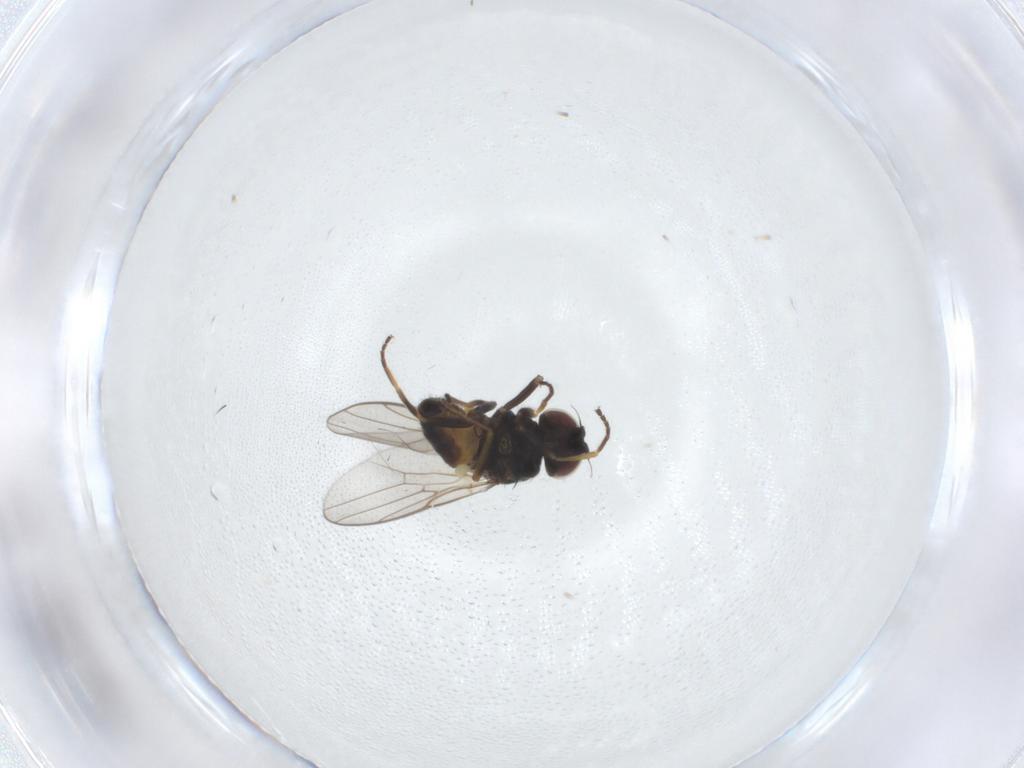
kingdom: Animalia
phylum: Arthropoda
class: Insecta
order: Diptera
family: Chloropidae
